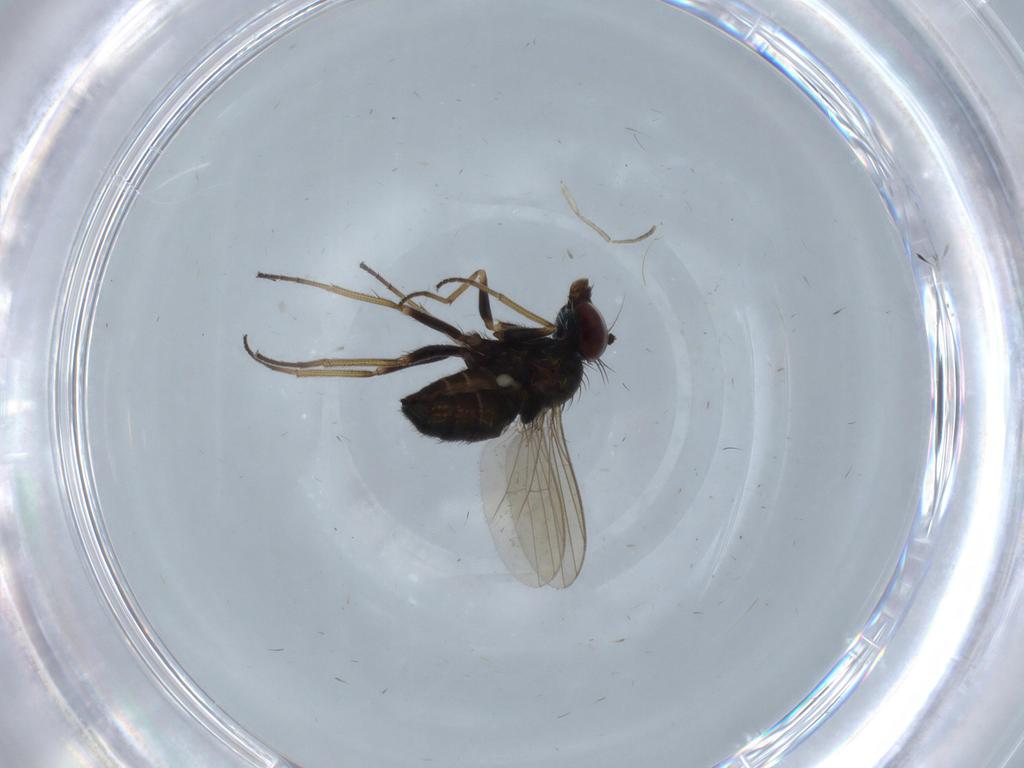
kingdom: Animalia
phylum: Arthropoda
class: Insecta
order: Diptera
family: Dolichopodidae
